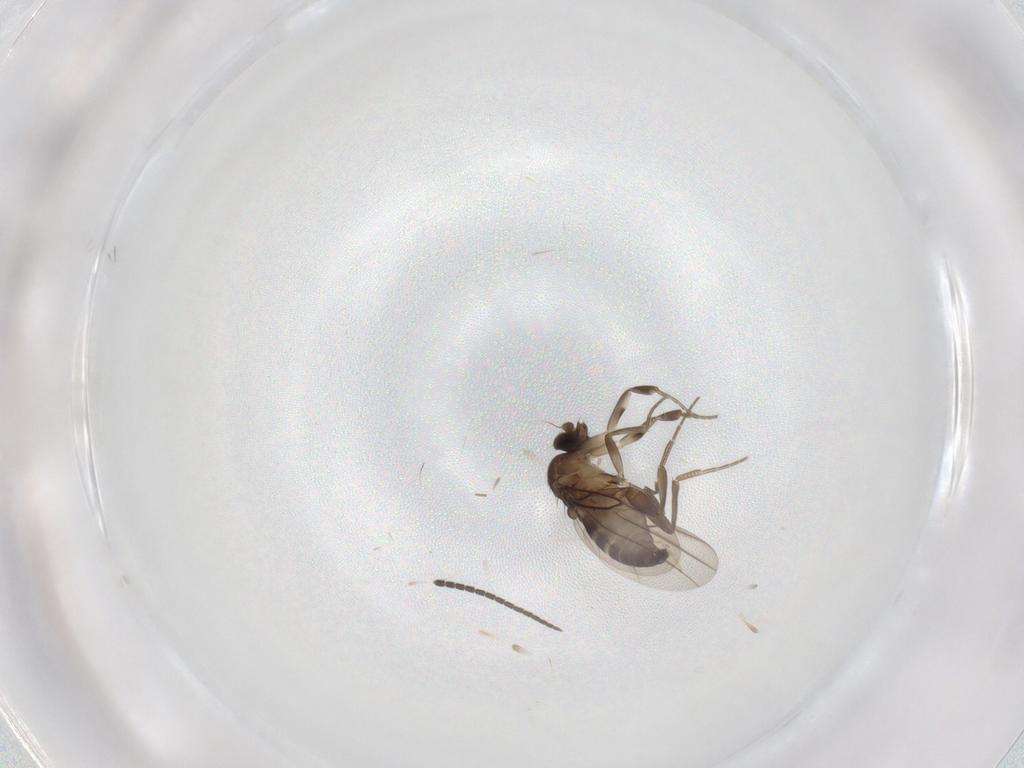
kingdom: Animalia
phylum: Arthropoda
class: Insecta
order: Diptera
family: Phoridae
